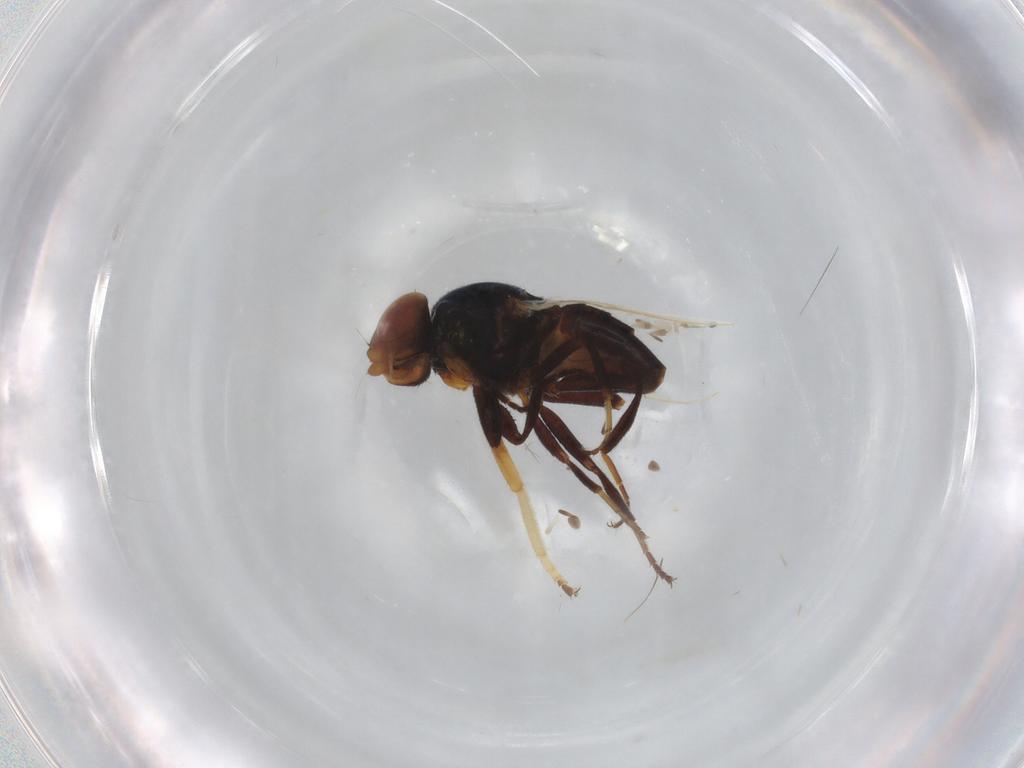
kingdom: Animalia
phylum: Arthropoda
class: Insecta
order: Diptera
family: Chloropidae
